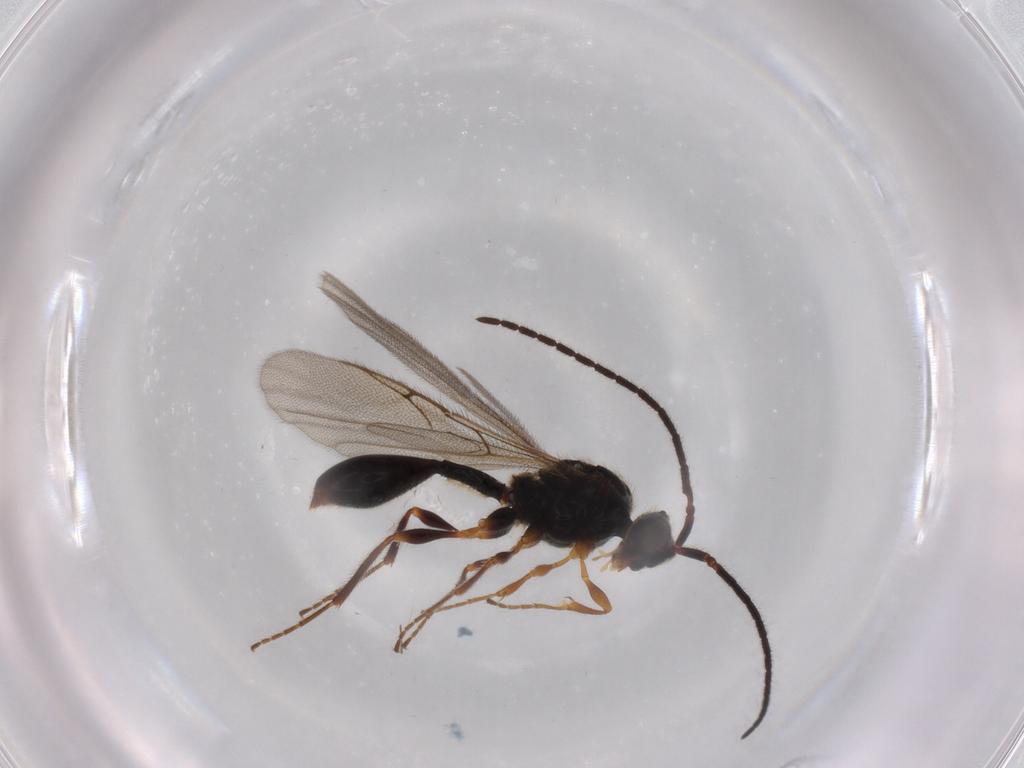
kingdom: Animalia
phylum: Arthropoda
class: Insecta
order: Hymenoptera
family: Diapriidae
